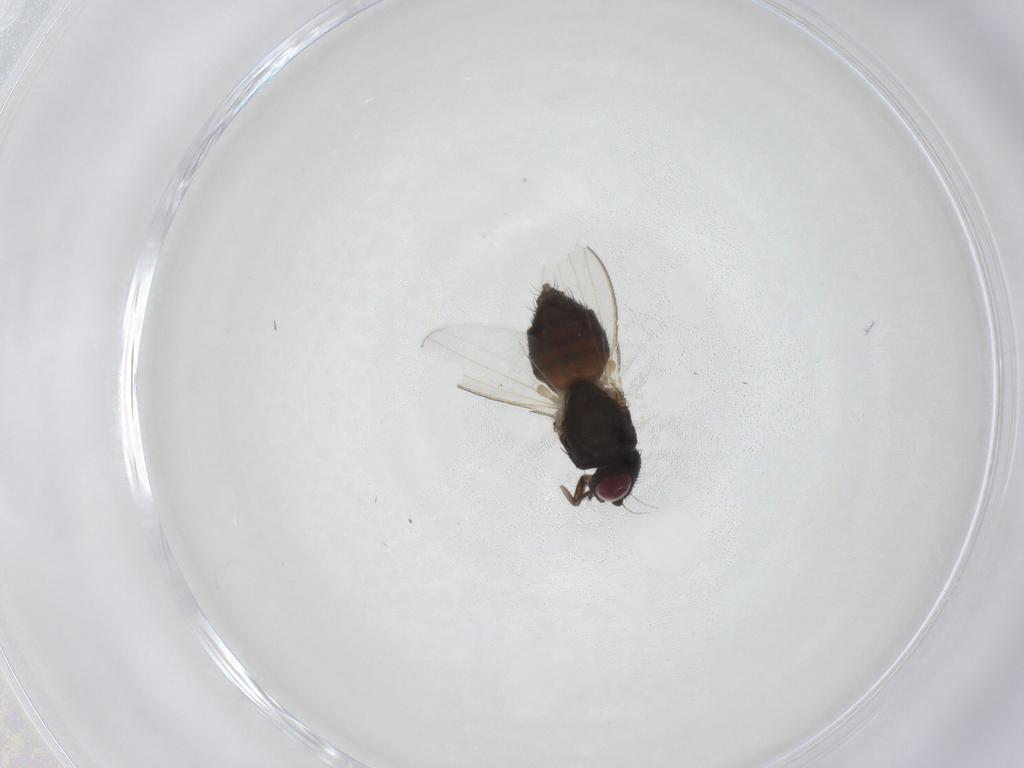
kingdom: Animalia
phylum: Arthropoda
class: Insecta
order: Diptera
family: Milichiidae
